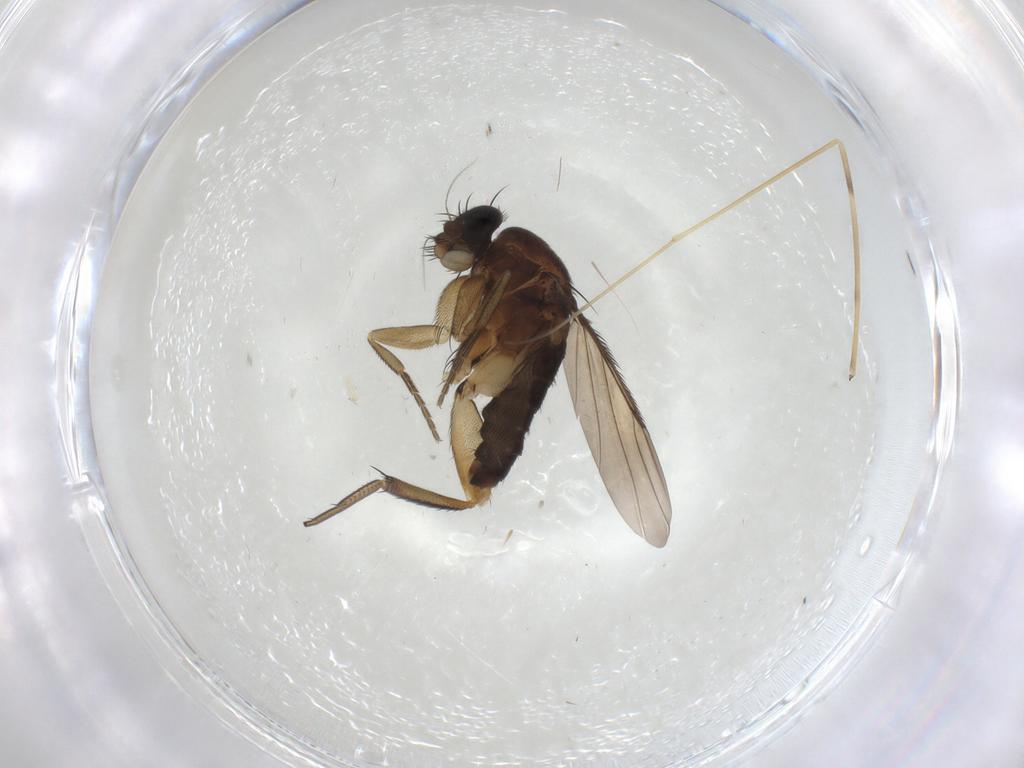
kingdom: Animalia
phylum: Arthropoda
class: Insecta
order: Diptera
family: Phoridae
